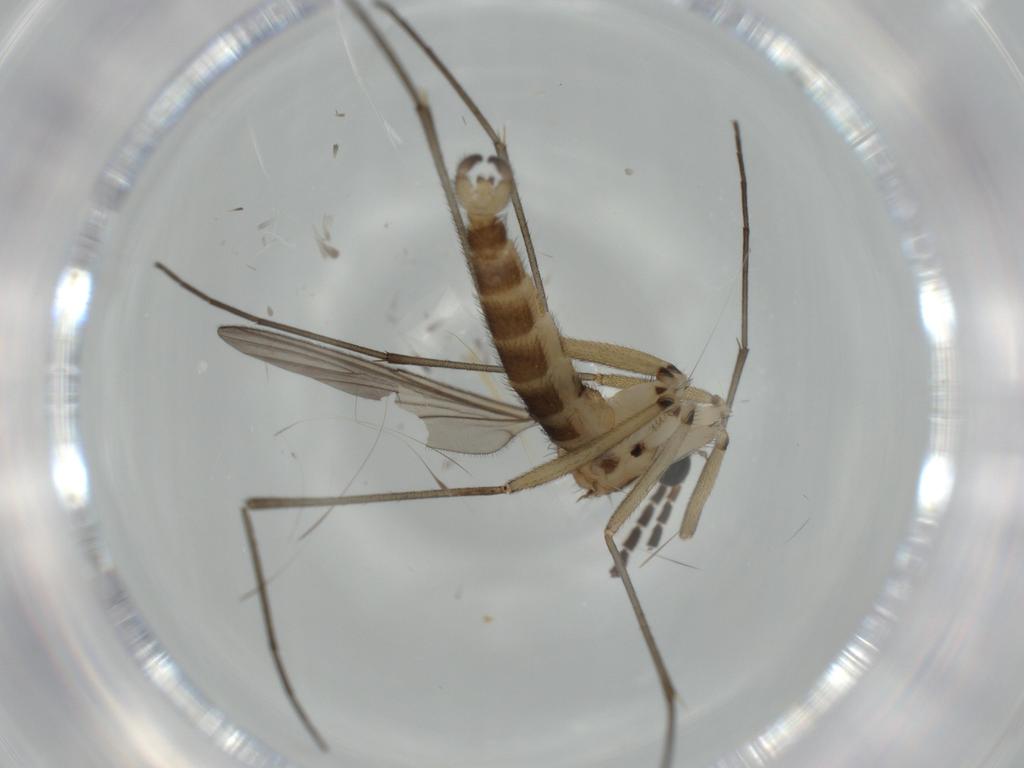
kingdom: Animalia
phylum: Arthropoda
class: Insecta
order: Diptera
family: Sciaridae
